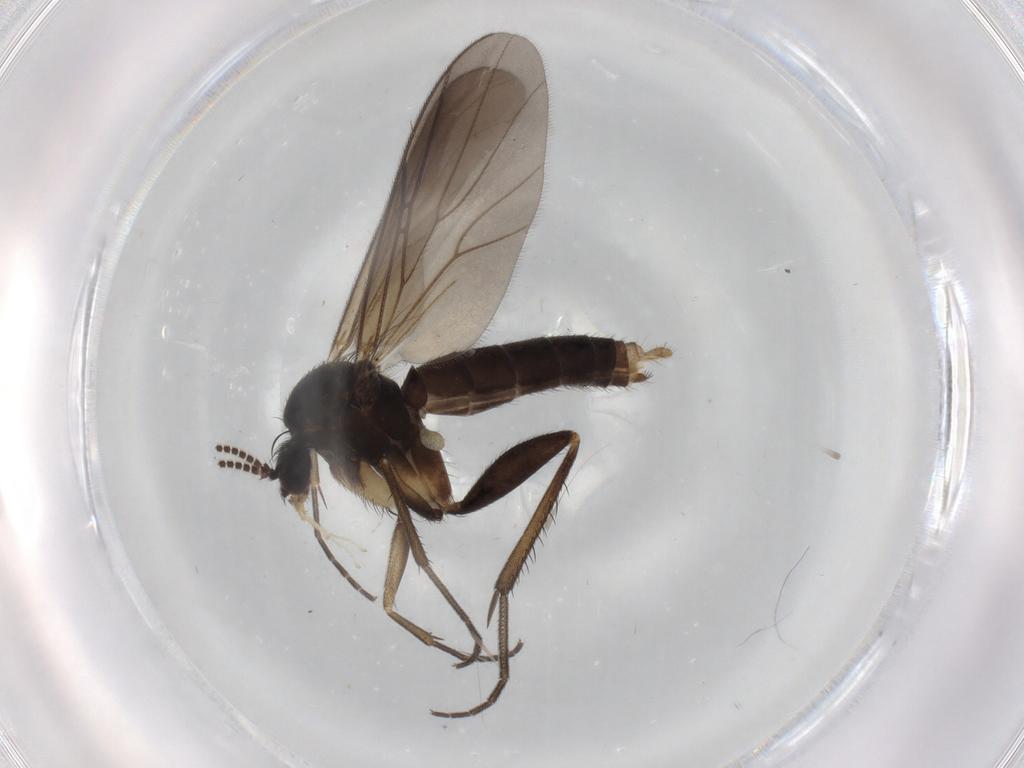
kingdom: Animalia
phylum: Arthropoda
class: Insecta
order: Diptera
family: Mycetophilidae
